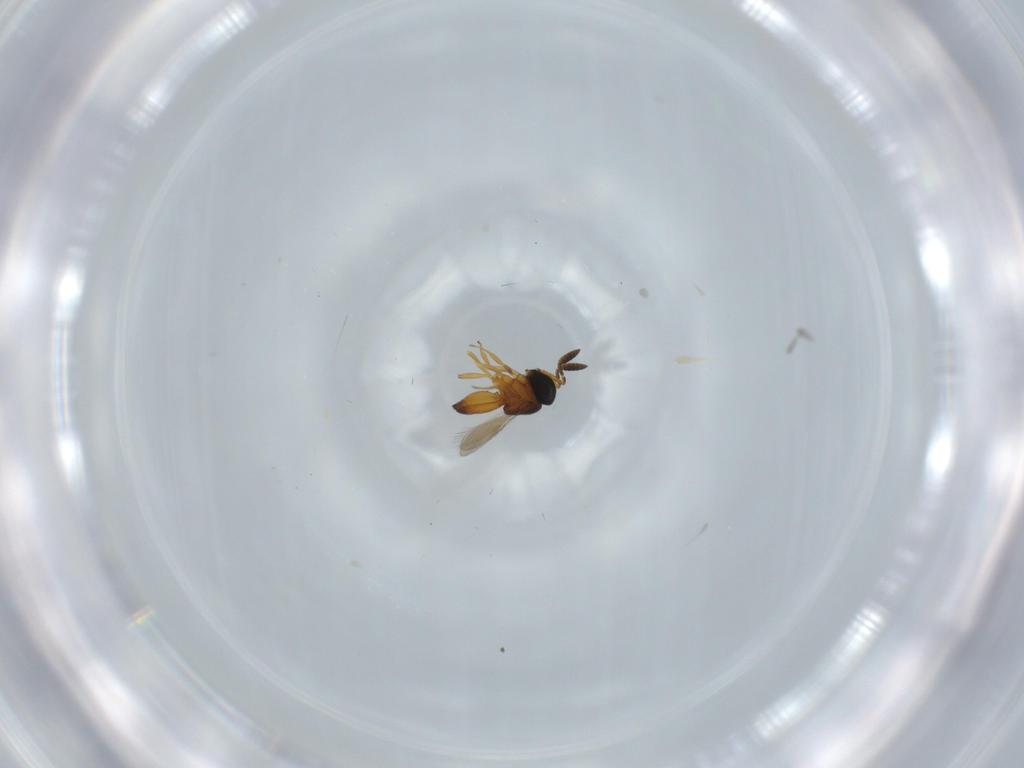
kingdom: Animalia
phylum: Arthropoda
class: Insecta
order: Hymenoptera
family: Scelionidae
